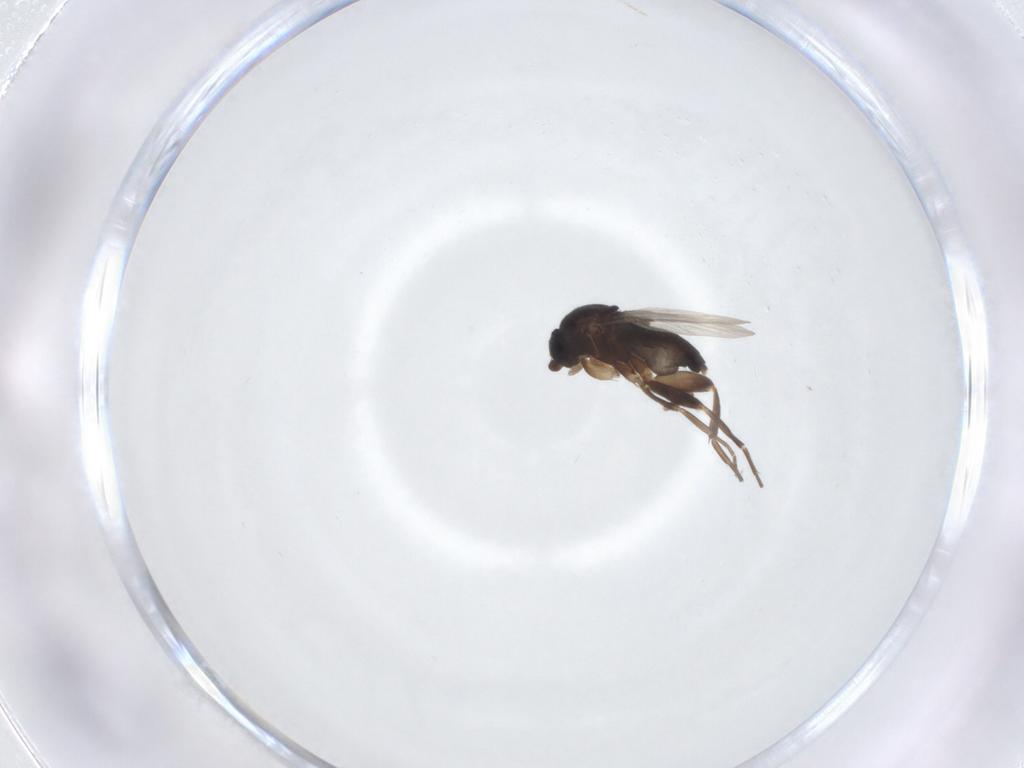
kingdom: Animalia
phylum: Arthropoda
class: Insecta
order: Diptera
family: Phoridae
